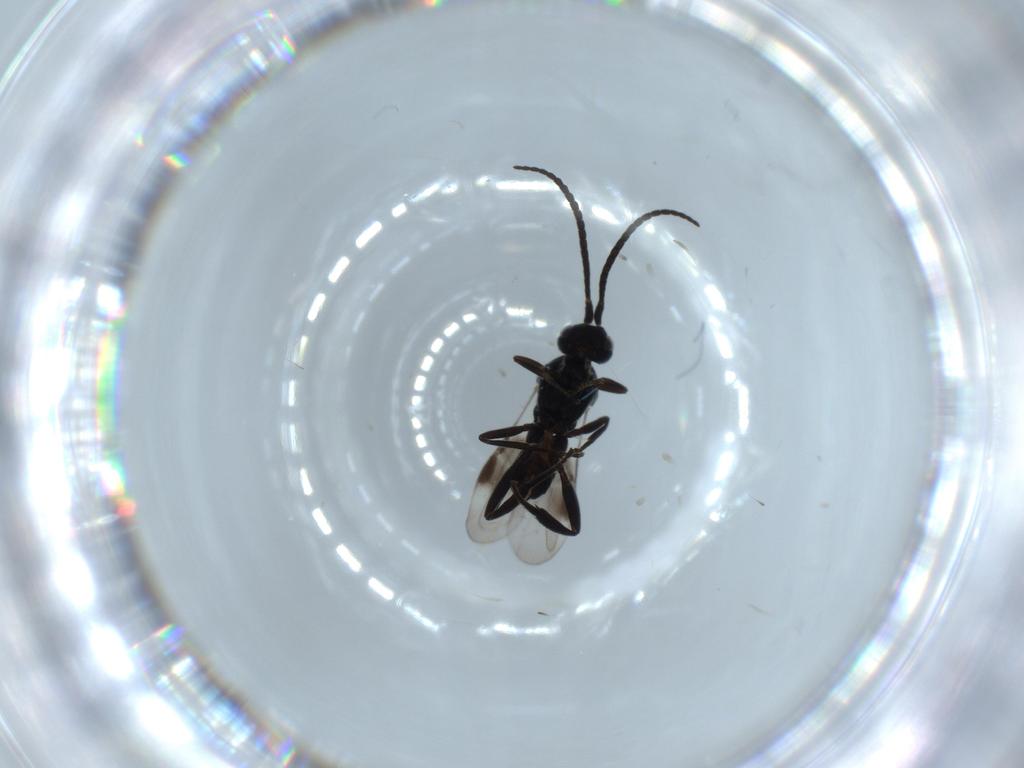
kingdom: Animalia
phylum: Arthropoda
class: Insecta
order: Hymenoptera
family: Braconidae
